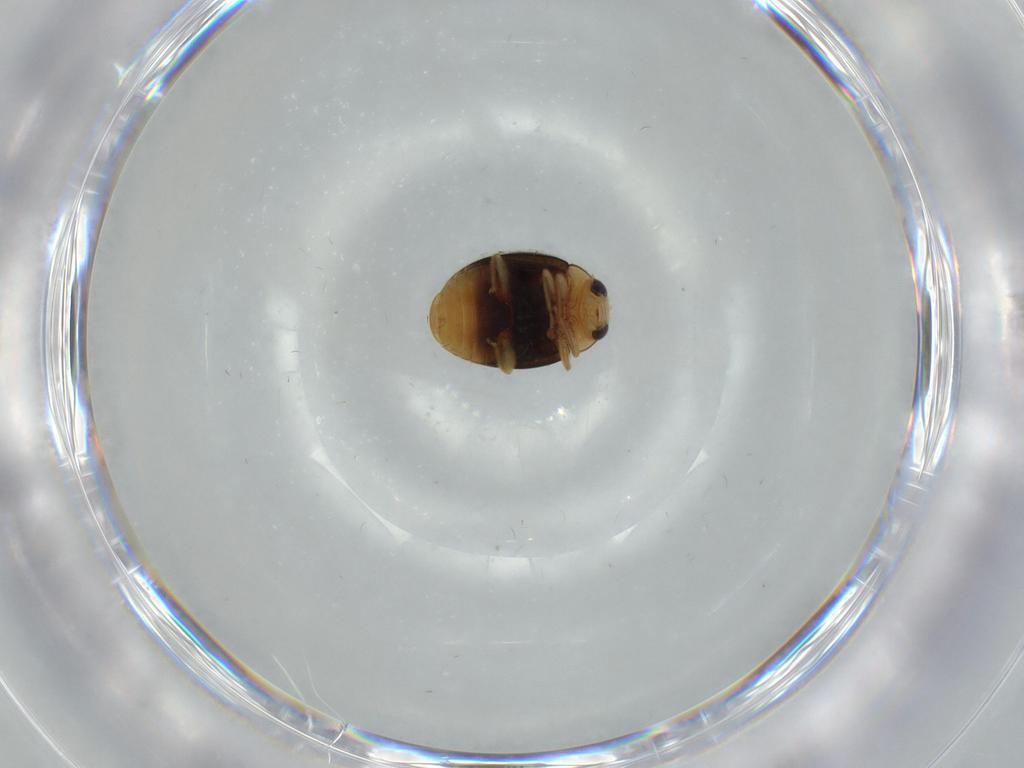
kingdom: Animalia
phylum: Arthropoda
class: Insecta
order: Coleoptera
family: Coccinellidae
